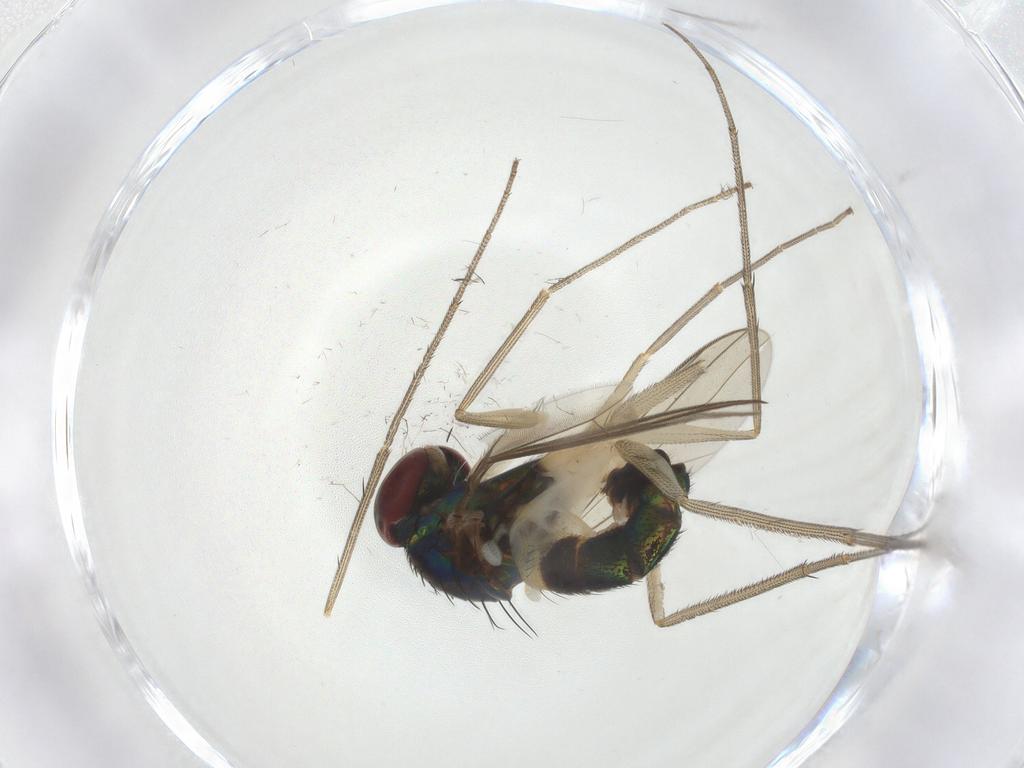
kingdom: Animalia
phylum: Arthropoda
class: Insecta
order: Diptera
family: Dolichopodidae
